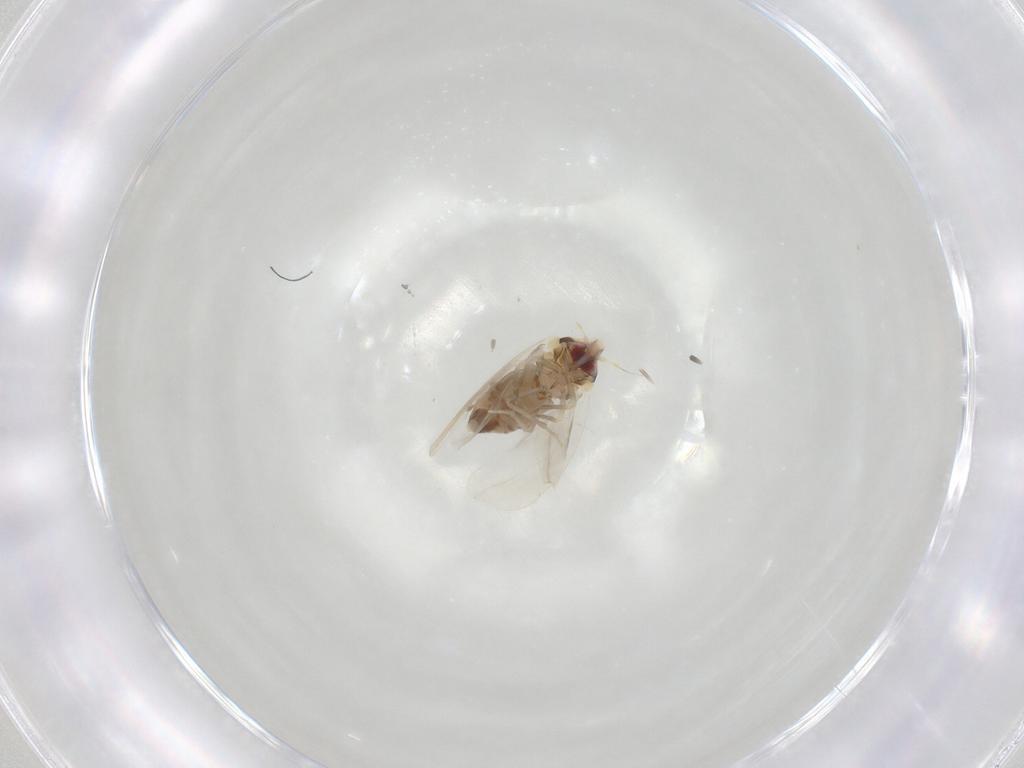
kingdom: Animalia
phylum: Arthropoda
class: Insecta
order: Hemiptera
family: Aleyrodidae
